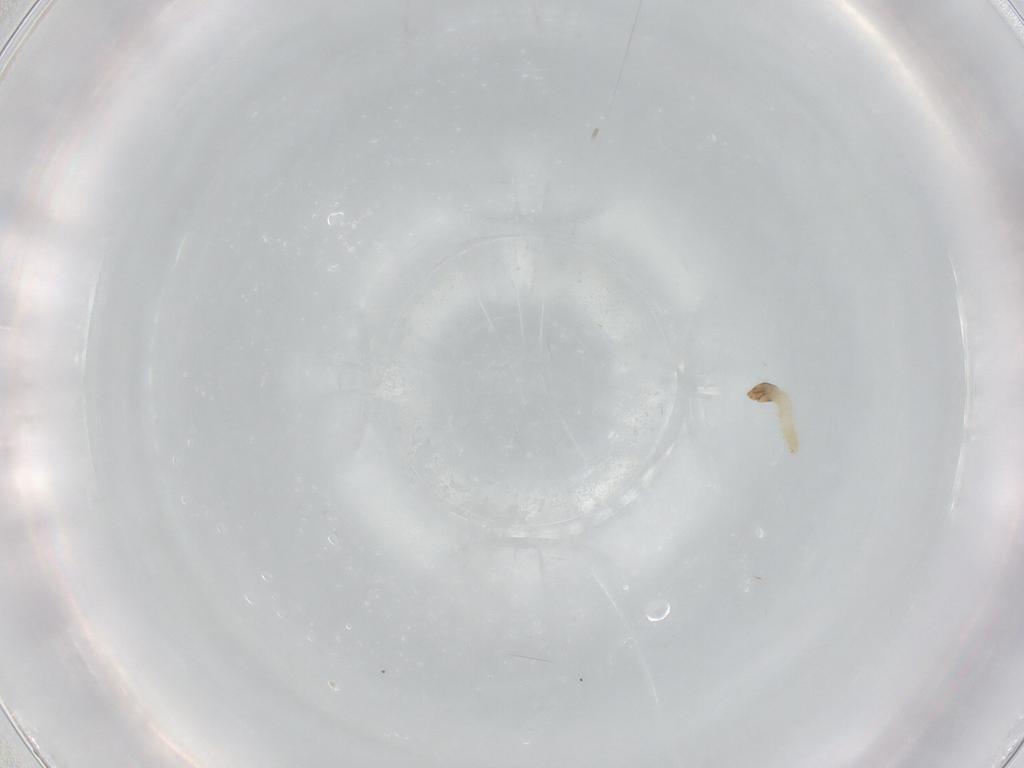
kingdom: Animalia
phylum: Arthropoda
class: Insecta
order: Lepidoptera
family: Tineidae
